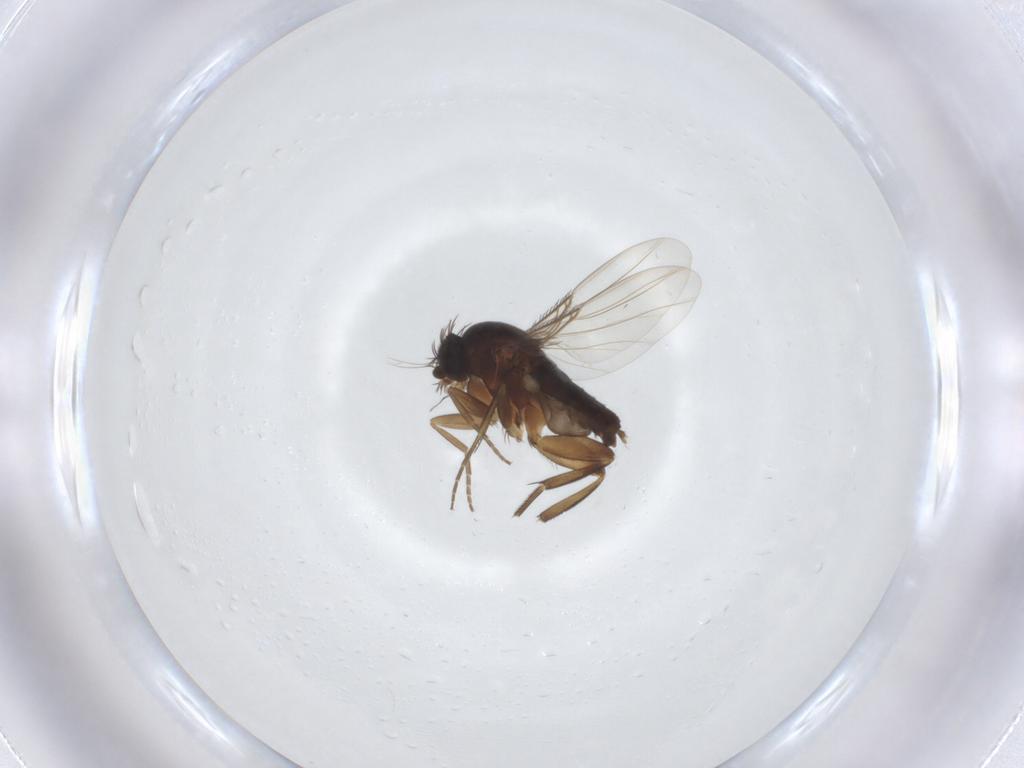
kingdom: Animalia
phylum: Arthropoda
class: Insecta
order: Diptera
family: Phoridae
